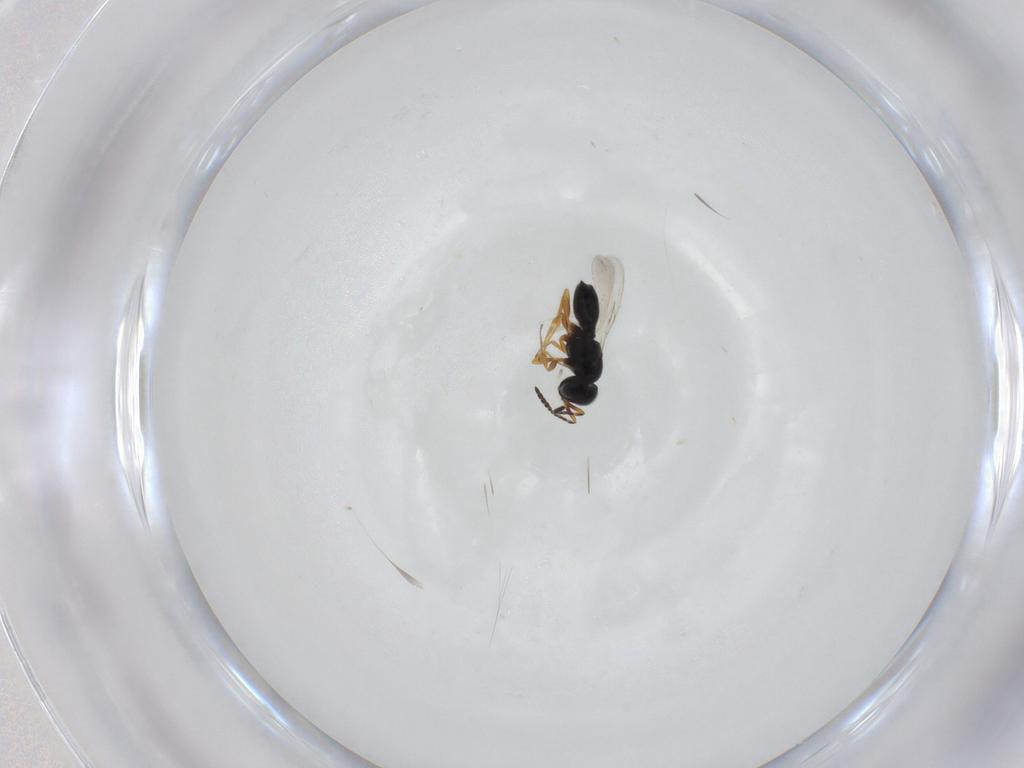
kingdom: Animalia
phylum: Arthropoda
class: Insecta
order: Hymenoptera
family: Scelionidae
